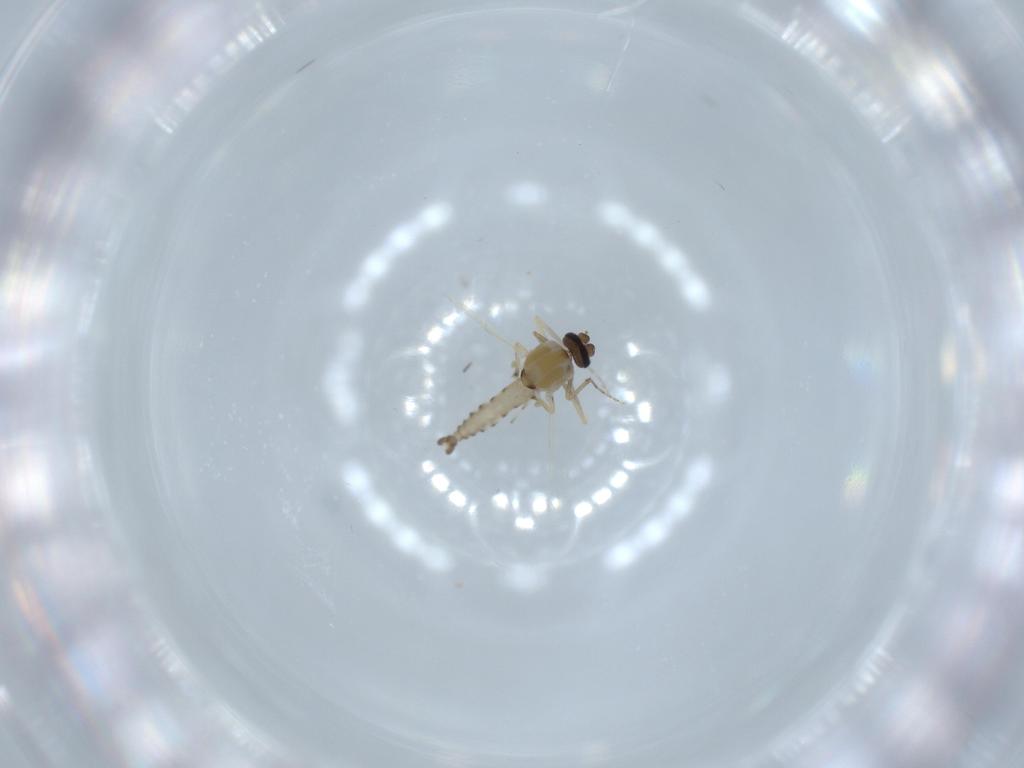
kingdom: Animalia
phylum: Arthropoda
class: Insecta
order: Diptera
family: Ceratopogonidae
